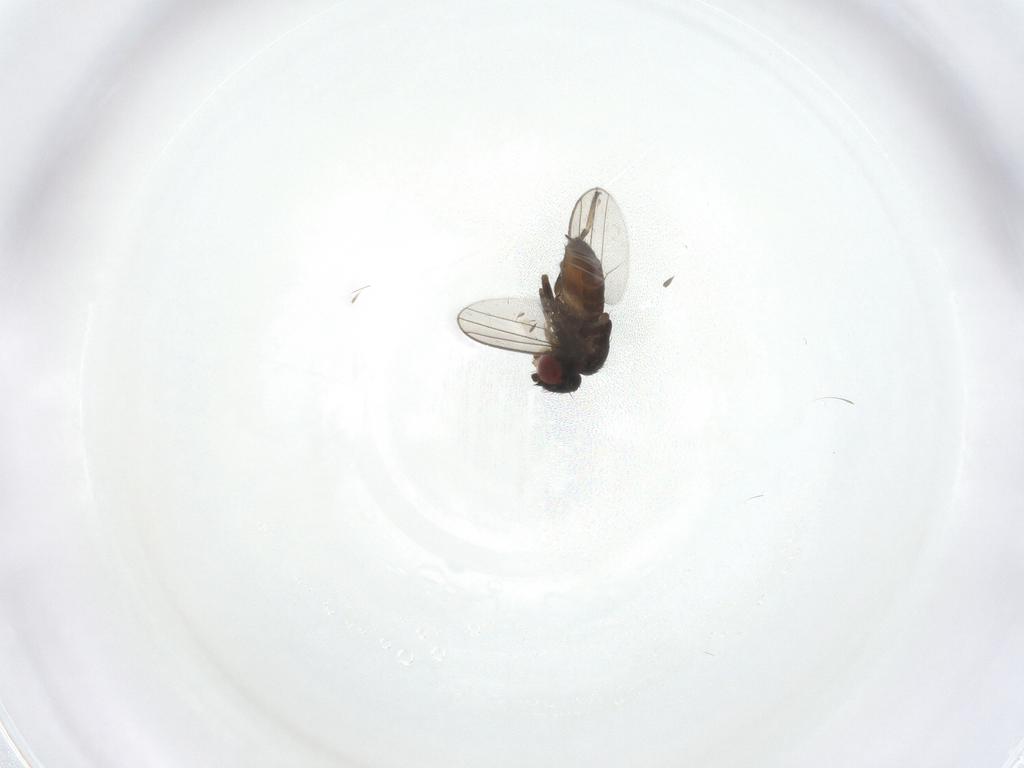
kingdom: Animalia
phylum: Arthropoda
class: Insecta
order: Diptera
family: Milichiidae
